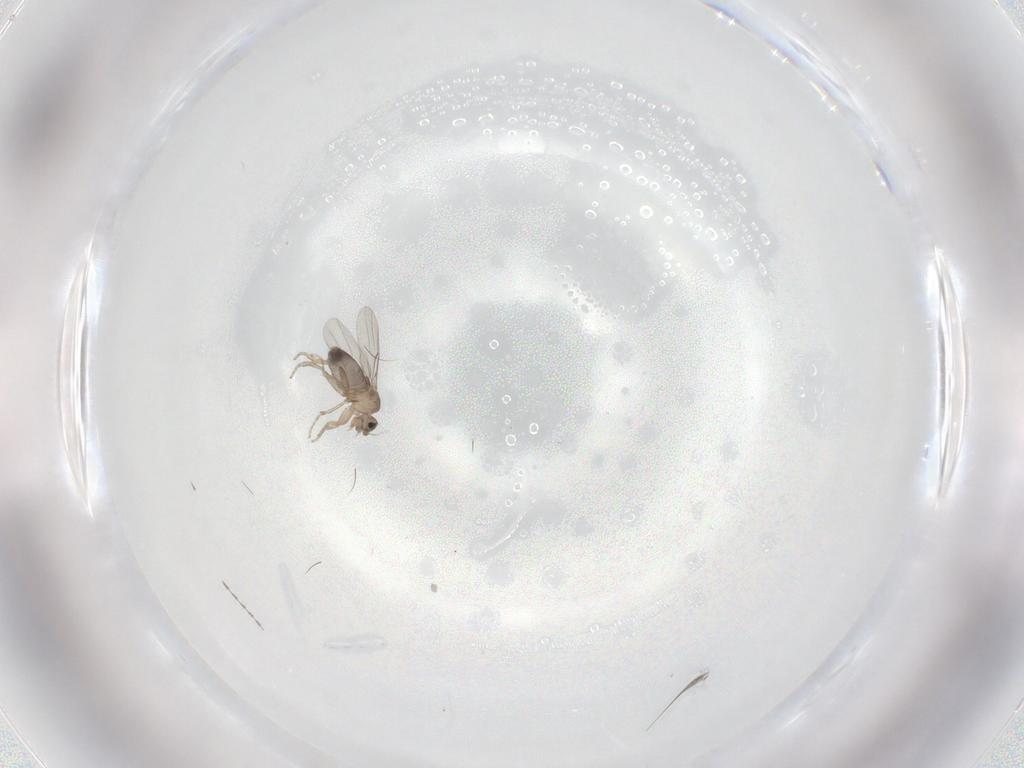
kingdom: Animalia
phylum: Arthropoda
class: Insecta
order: Diptera
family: Phoridae
